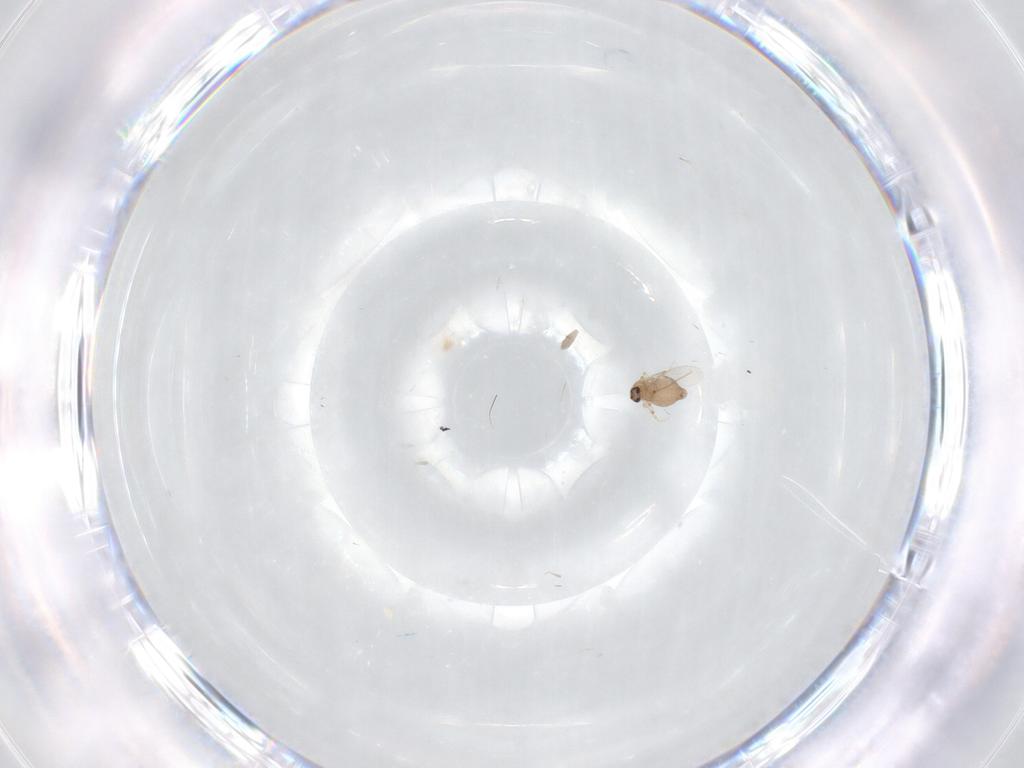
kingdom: Animalia
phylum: Arthropoda
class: Insecta
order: Diptera
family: Ceratopogonidae
